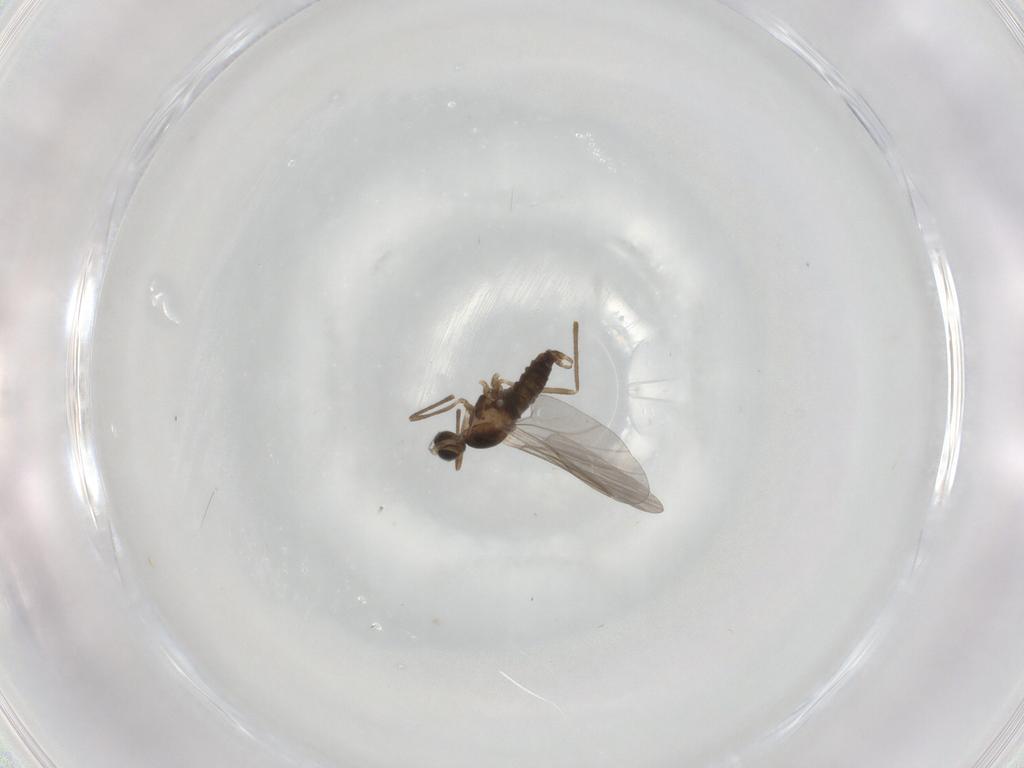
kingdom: Animalia
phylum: Arthropoda
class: Insecta
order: Diptera
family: Cecidomyiidae
